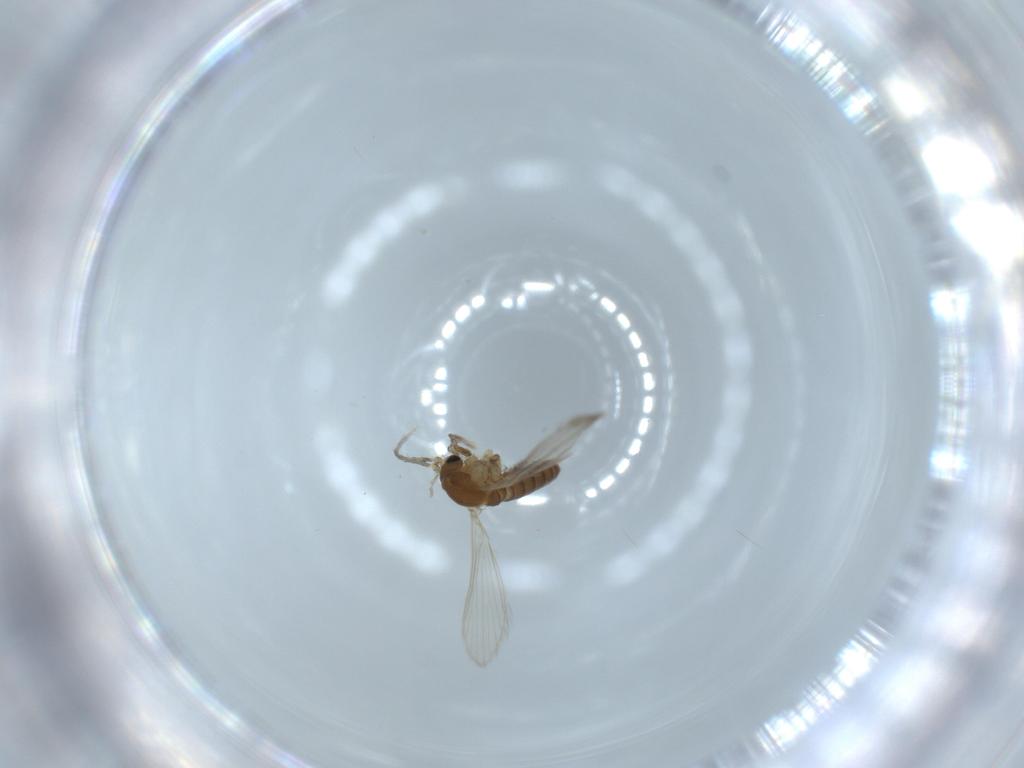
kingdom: Animalia
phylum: Arthropoda
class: Insecta
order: Diptera
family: Psychodidae
